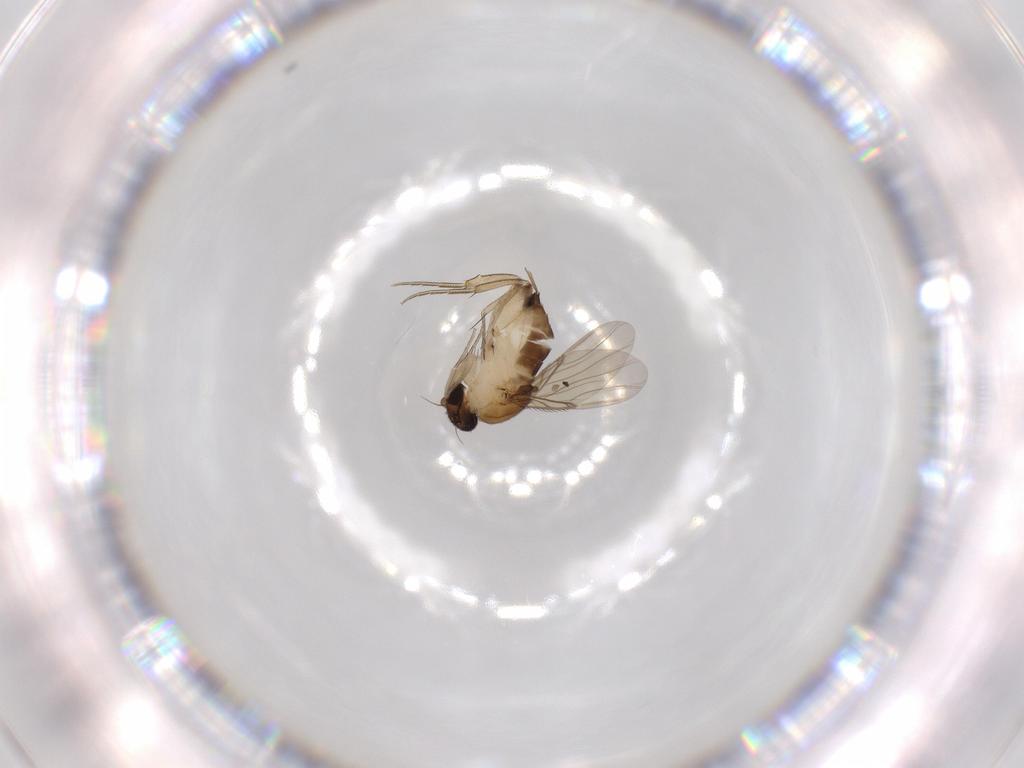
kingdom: Animalia
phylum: Arthropoda
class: Insecta
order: Diptera
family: Phoridae
